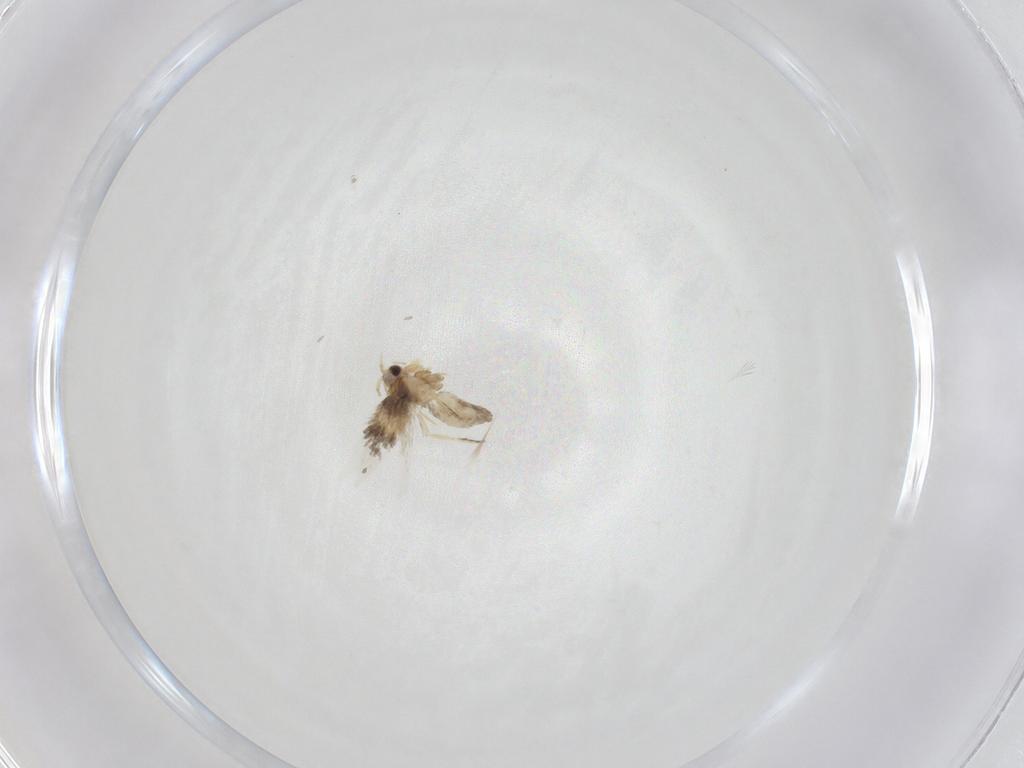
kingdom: Animalia
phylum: Arthropoda
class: Insecta
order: Lepidoptera
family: Nepticulidae
